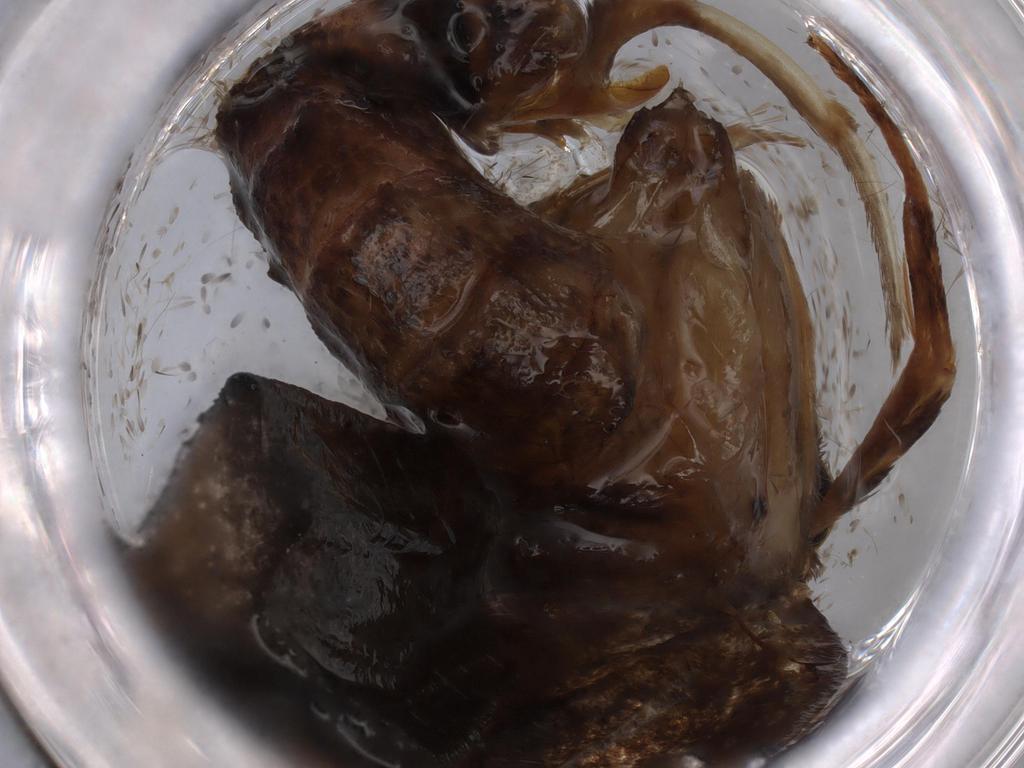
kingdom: Animalia
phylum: Arthropoda
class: Insecta
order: Lepidoptera
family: Tineidae
